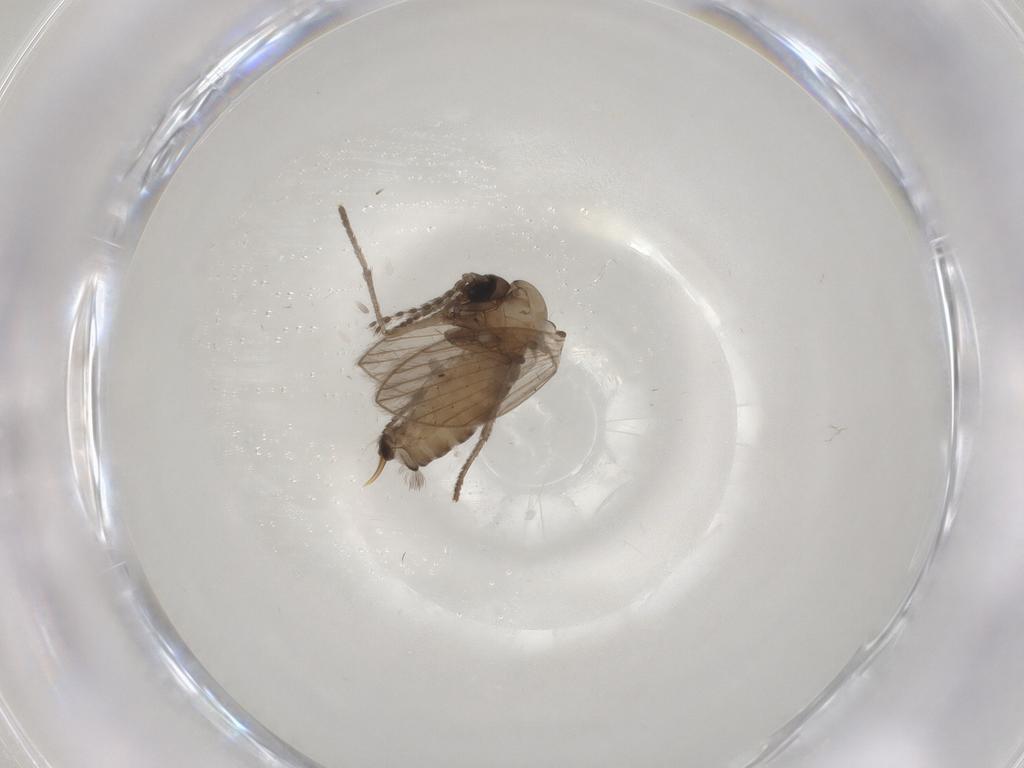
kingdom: Animalia
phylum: Arthropoda
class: Insecta
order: Diptera
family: Psychodidae
